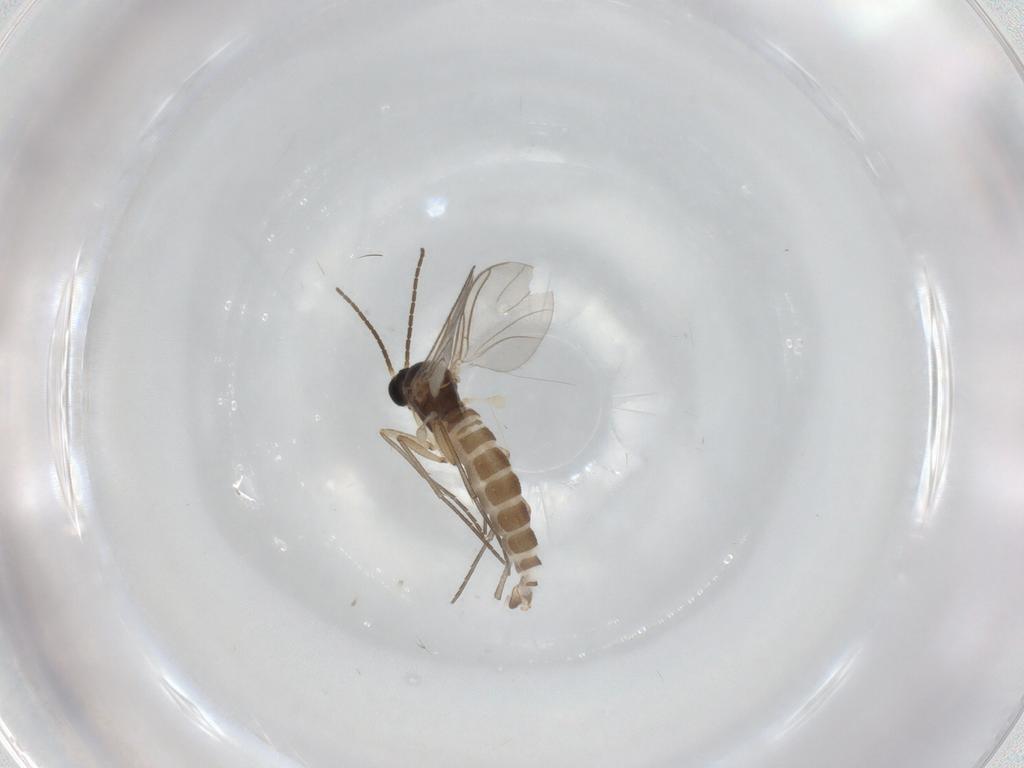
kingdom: Animalia
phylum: Arthropoda
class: Insecta
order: Diptera
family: Sciaridae
